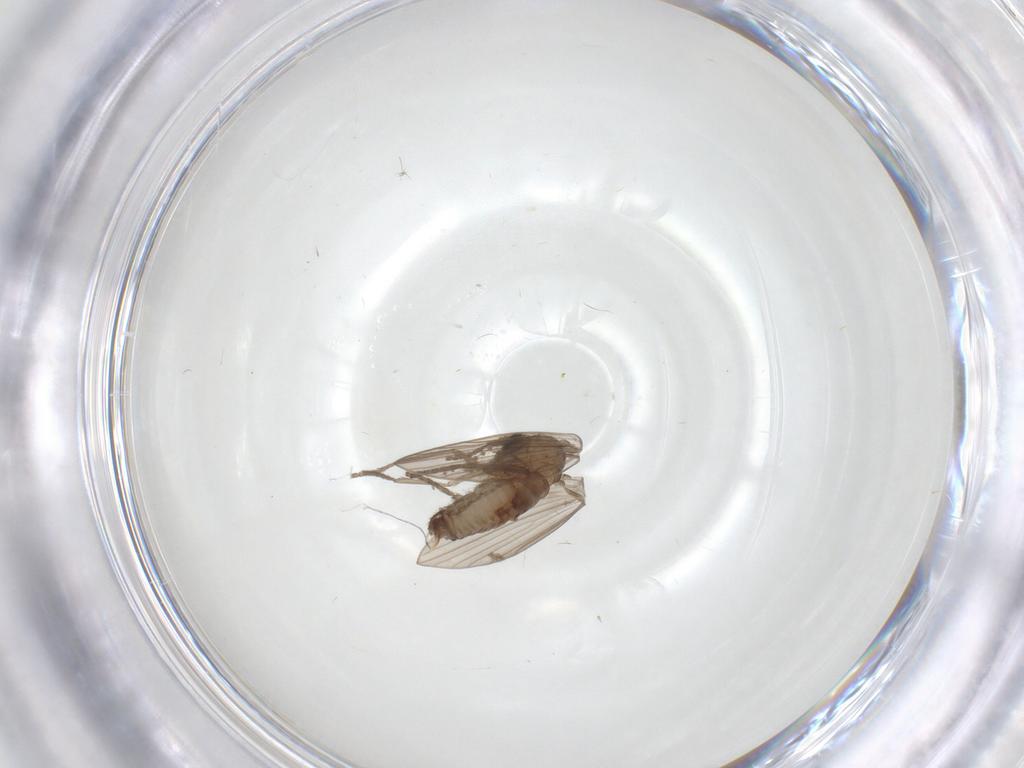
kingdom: Animalia
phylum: Arthropoda
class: Insecta
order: Diptera
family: Psychodidae
